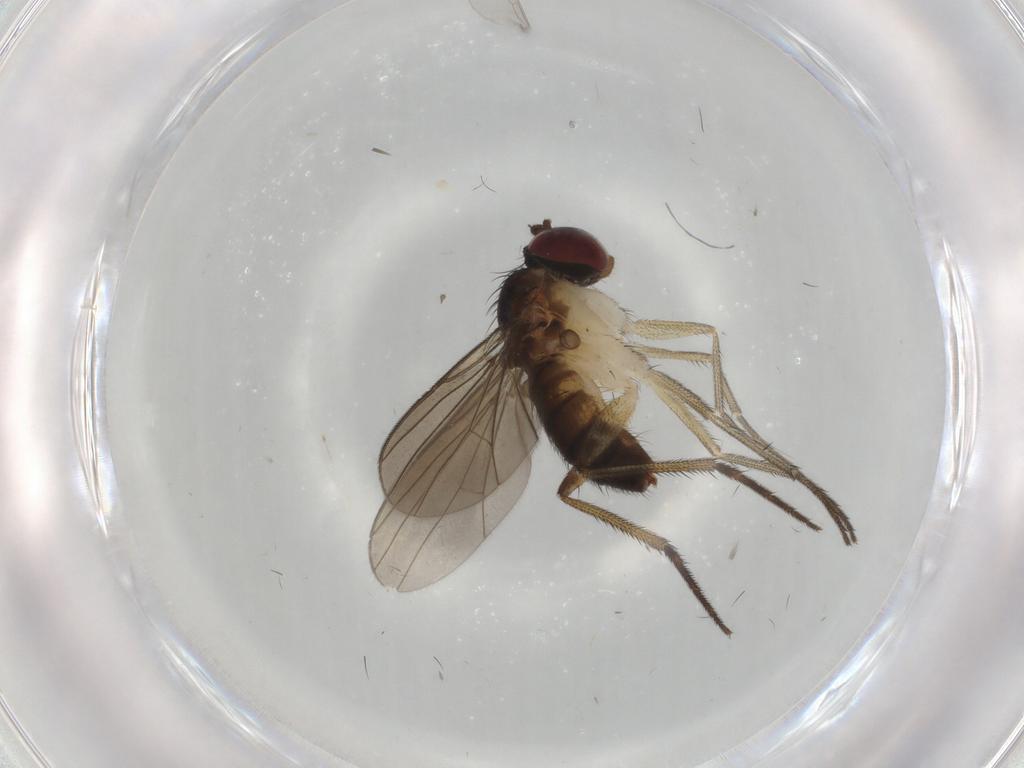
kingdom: Animalia
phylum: Arthropoda
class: Insecta
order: Diptera
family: Dolichopodidae
